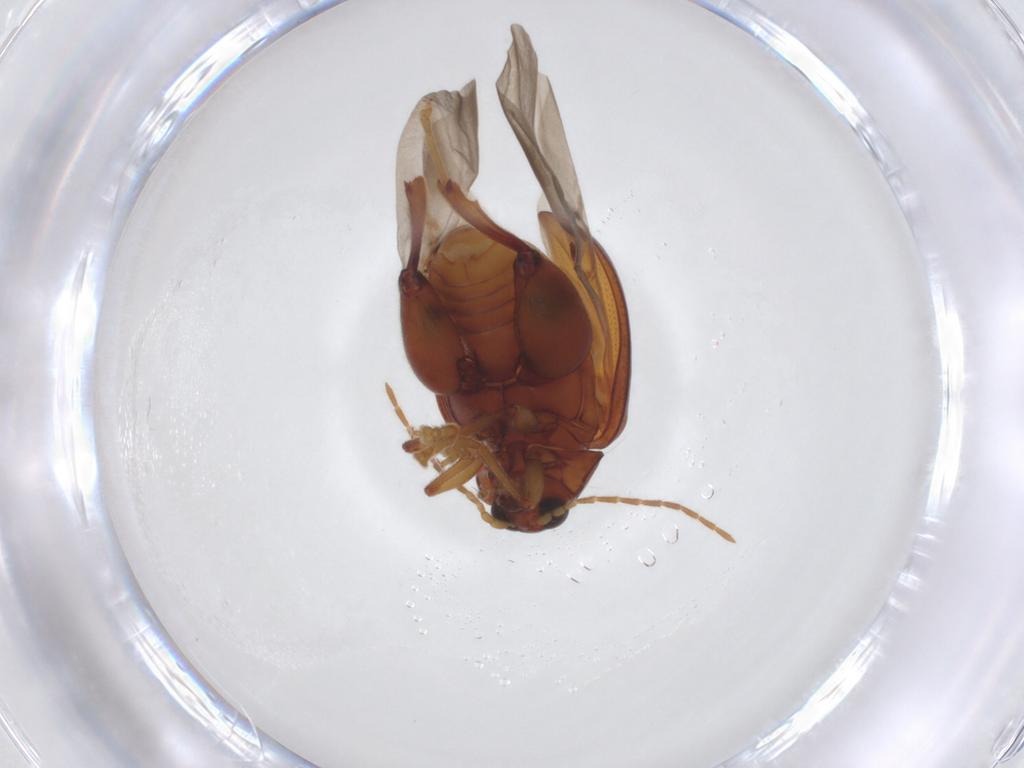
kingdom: Animalia
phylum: Arthropoda
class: Insecta
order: Coleoptera
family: Chrysomelidae
